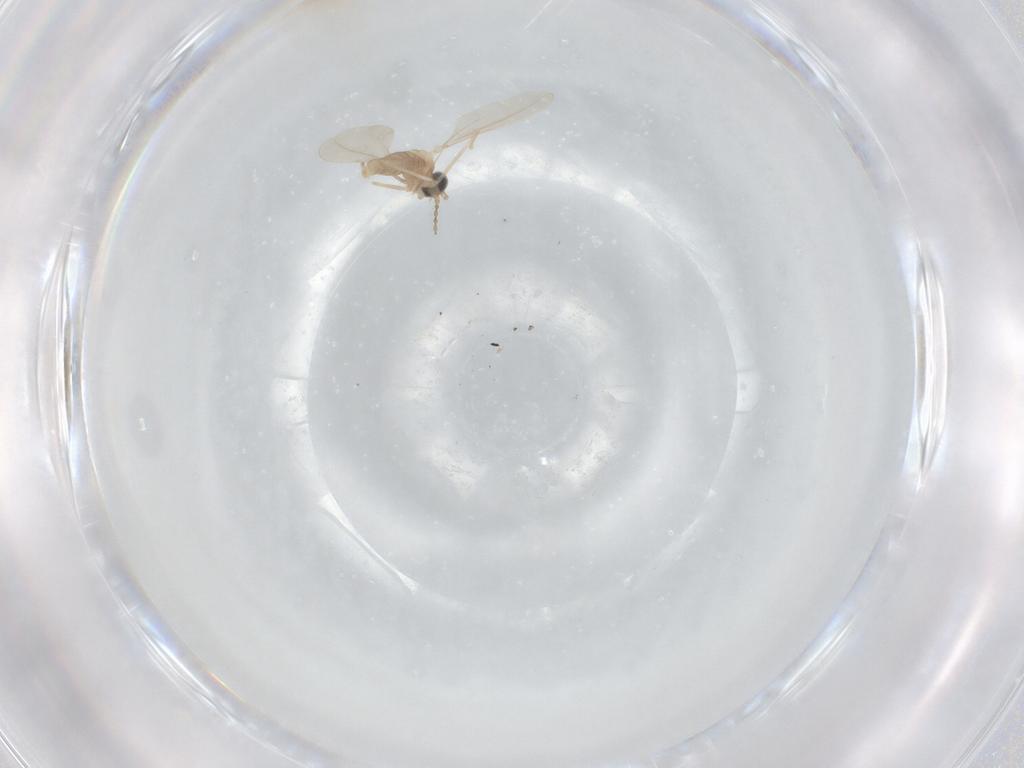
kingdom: Animalia
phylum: Arthropoda
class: Insecta
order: Diptera
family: Cecidomyiidae
